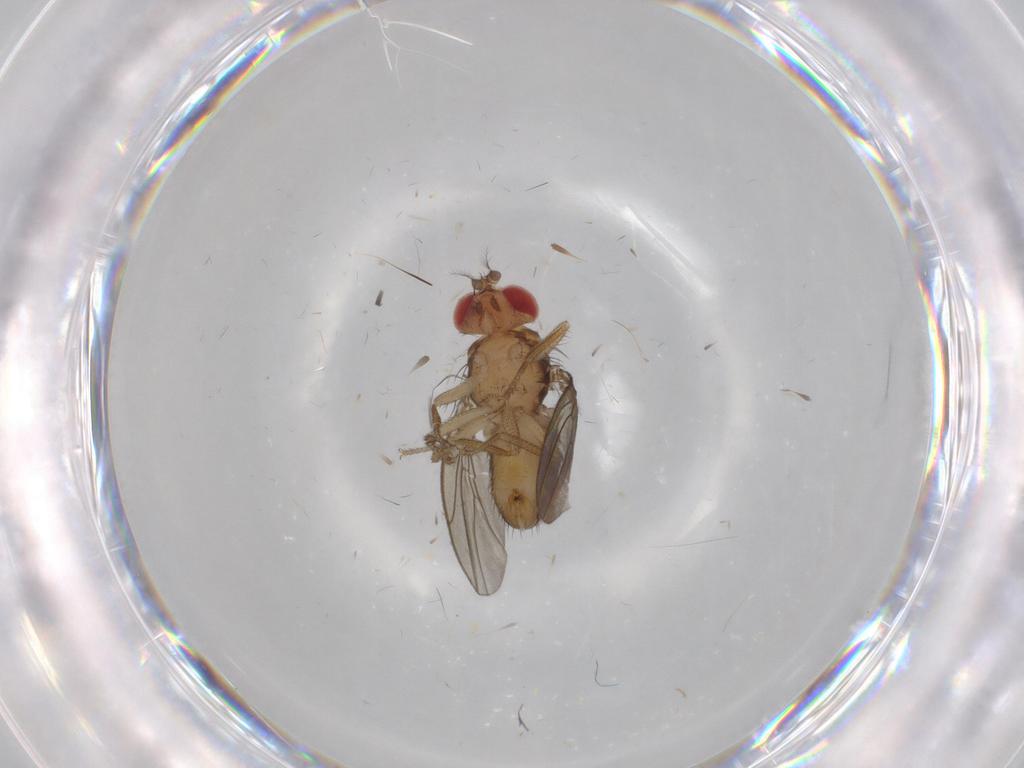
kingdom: Animalia
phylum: Arthropoda
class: Insecta
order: Diptera
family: Drosophilidae
